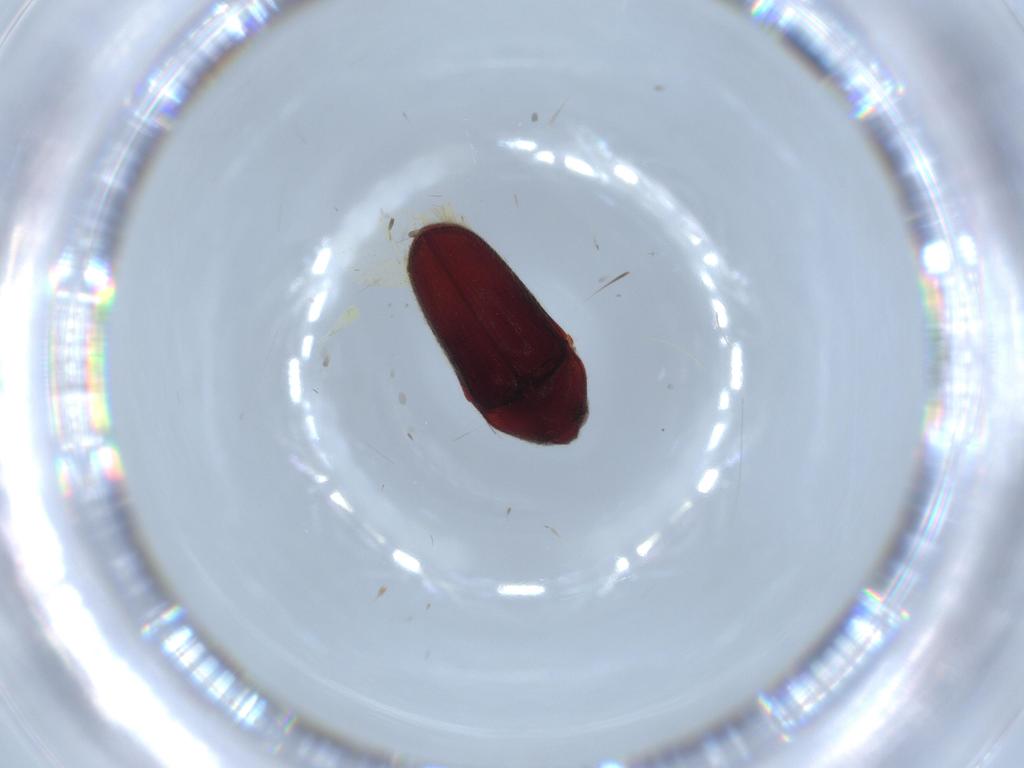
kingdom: Animalia
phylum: Arthropoda
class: Insecta
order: Coleoptera
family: Throscidae
